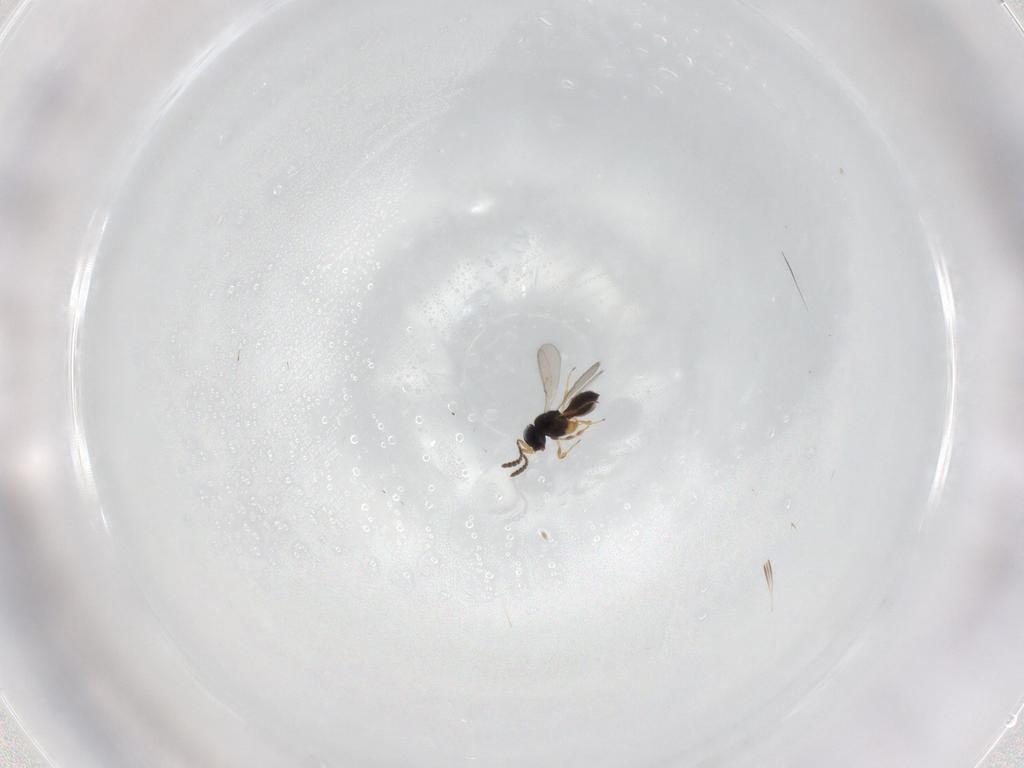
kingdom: Animalia
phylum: Arthropoda
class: Insecta
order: Hymenoptera
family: Scelionidae
